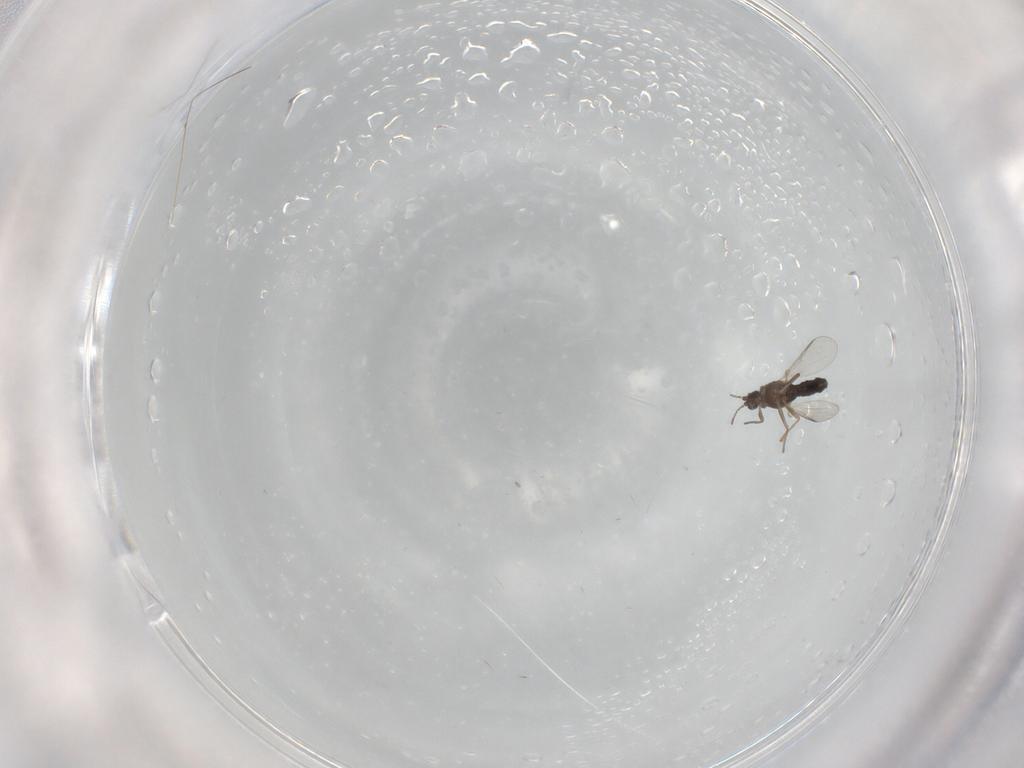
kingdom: Animalia
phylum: Arthropoda
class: Insecta
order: Diptera
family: Chironomidae
